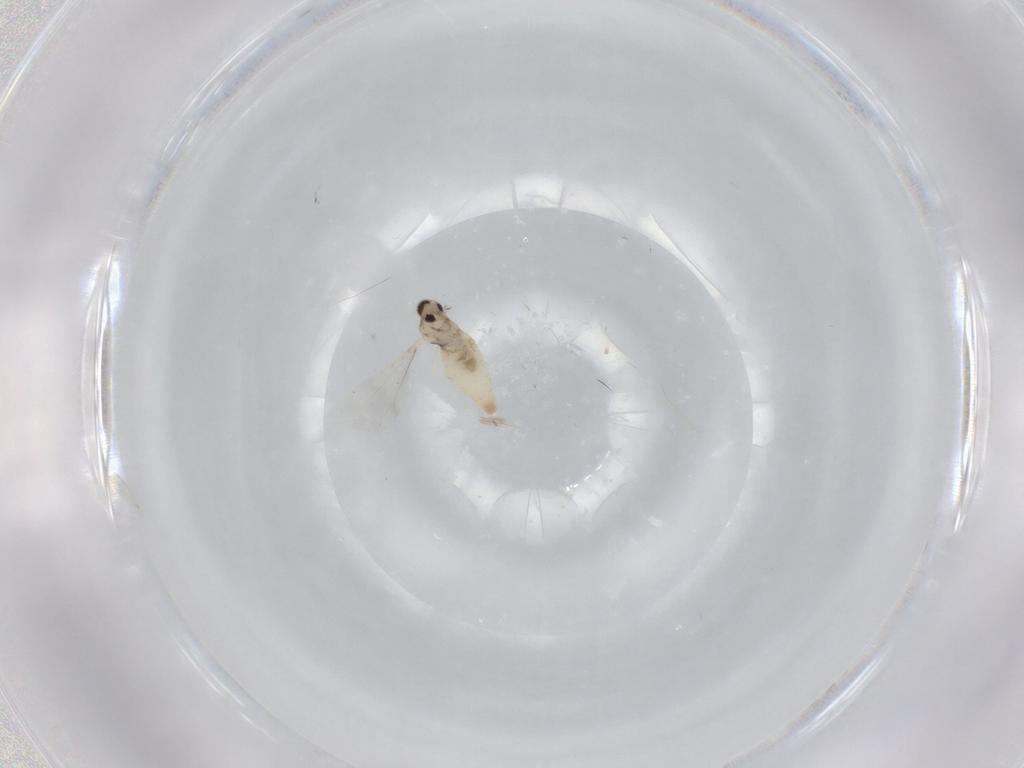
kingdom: Animalia
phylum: Arthropoda
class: Insecta
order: Diptera
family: Cecidomyiidae
